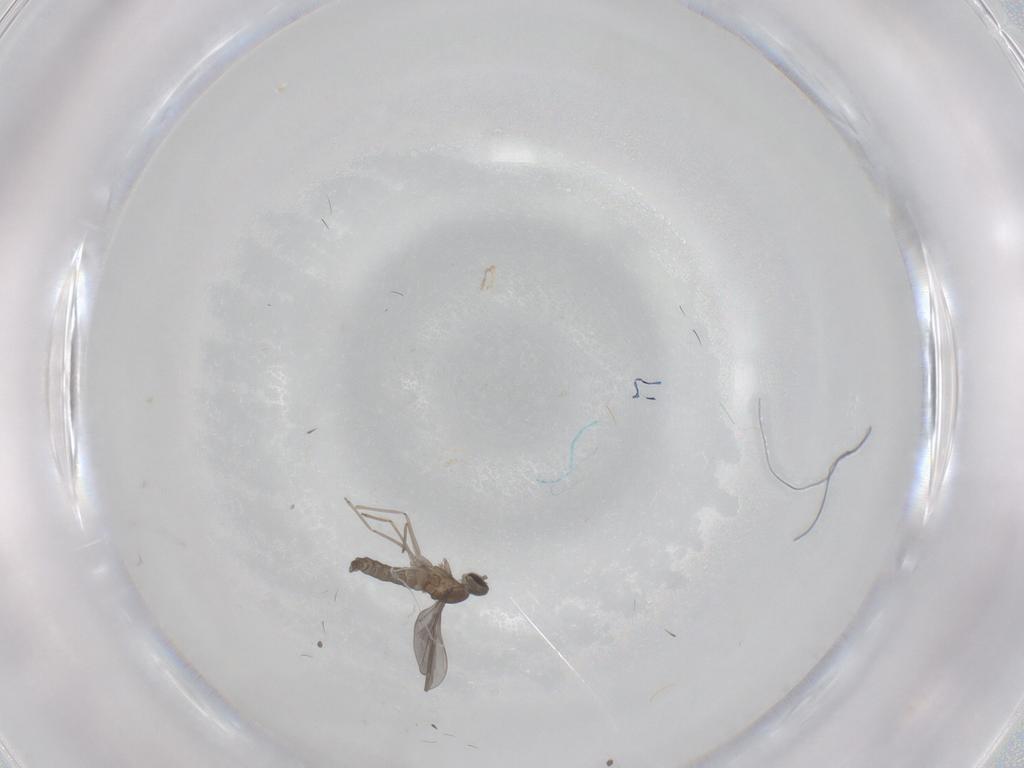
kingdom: Animalia
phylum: Arthropoda
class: Insecta
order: Diptera
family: Cecidomyiidae
